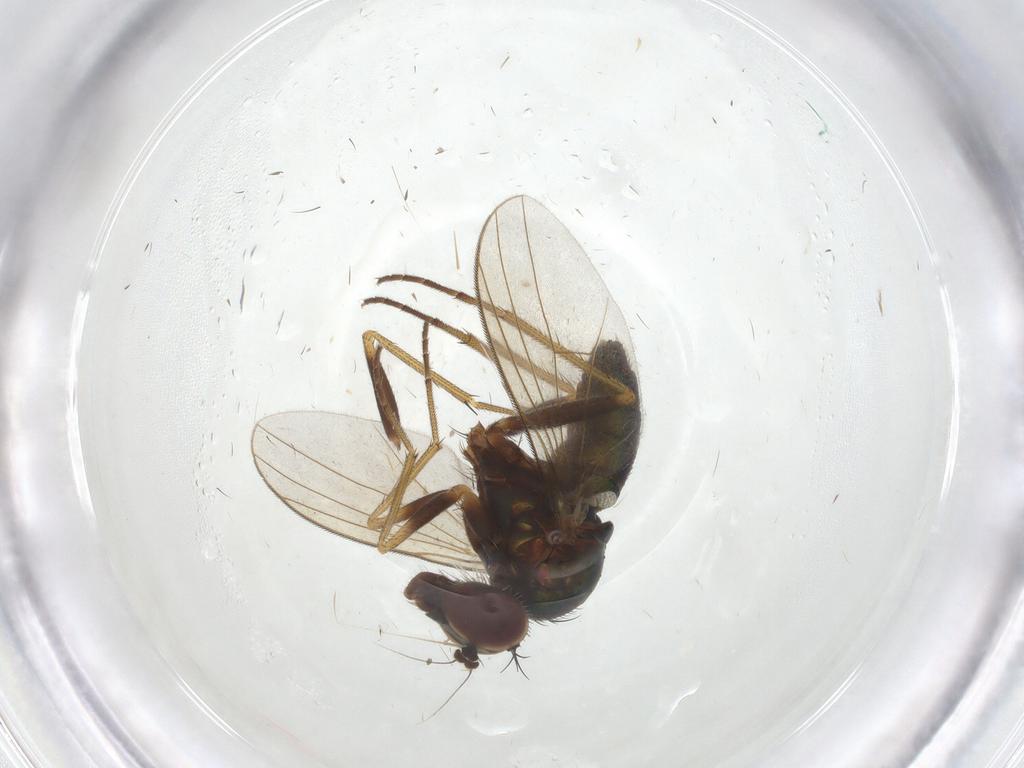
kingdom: Animalia
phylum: Arthropoda
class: Insecta
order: Diptera
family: Dolichopodidae
